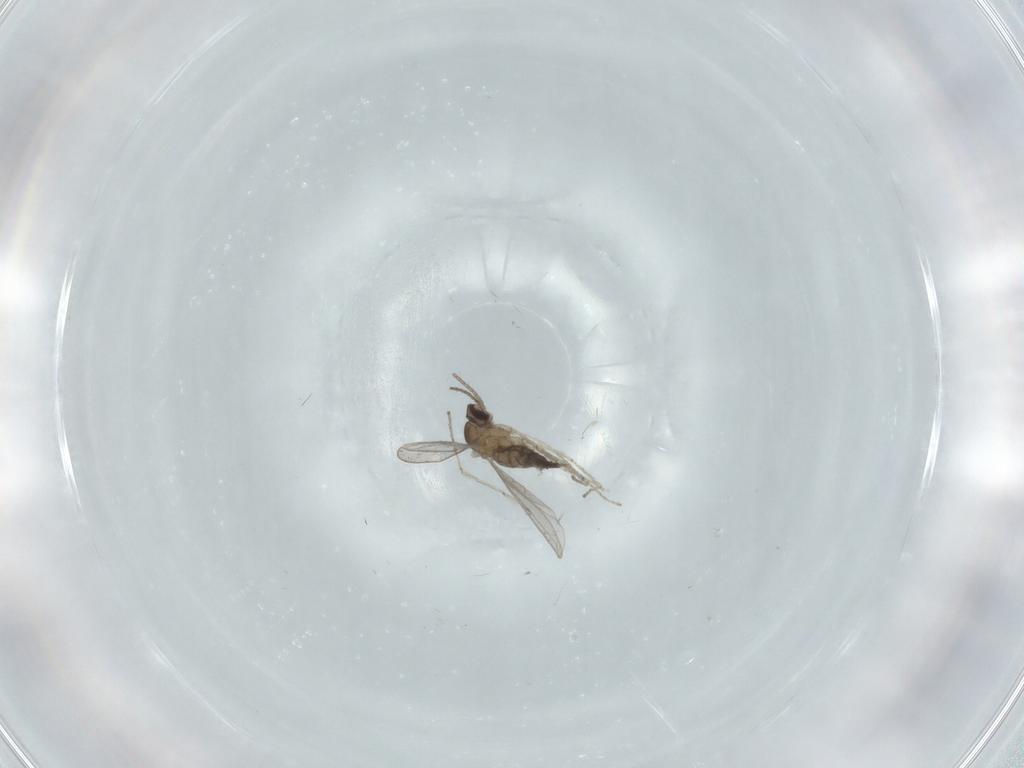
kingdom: Animalia
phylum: Arthropoda
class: Insecta
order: Diptera
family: Cecidomyiidae
